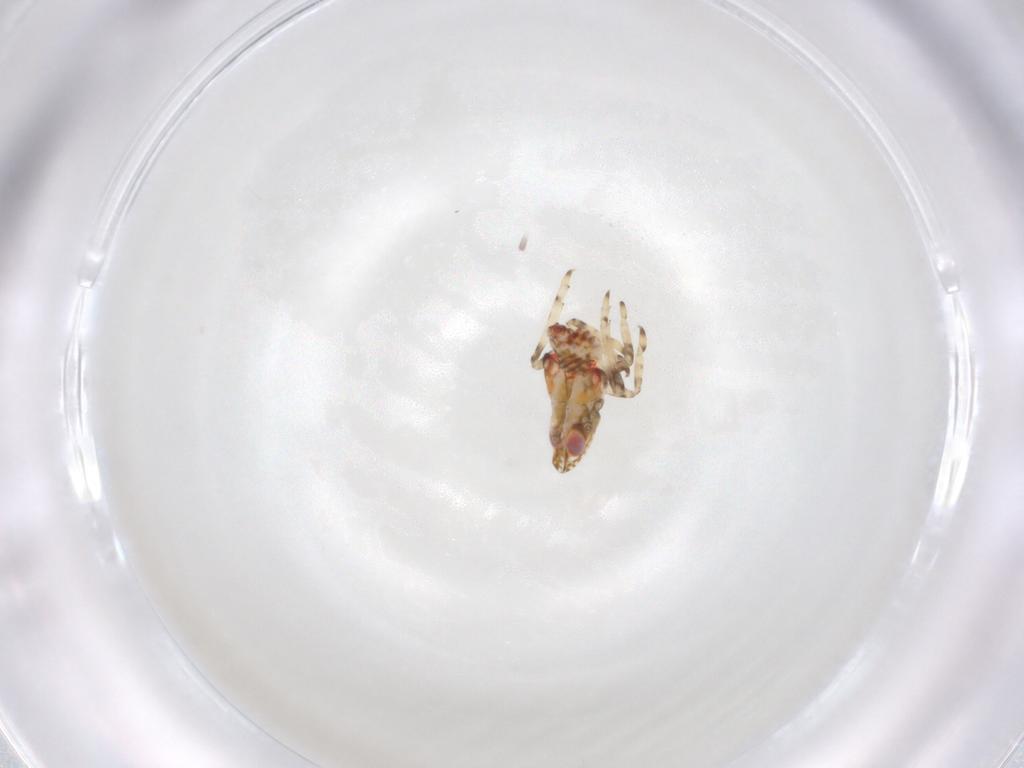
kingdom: Animalia
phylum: Arthropoda
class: Insecta
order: Hemiptera
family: Tropiduchidae
